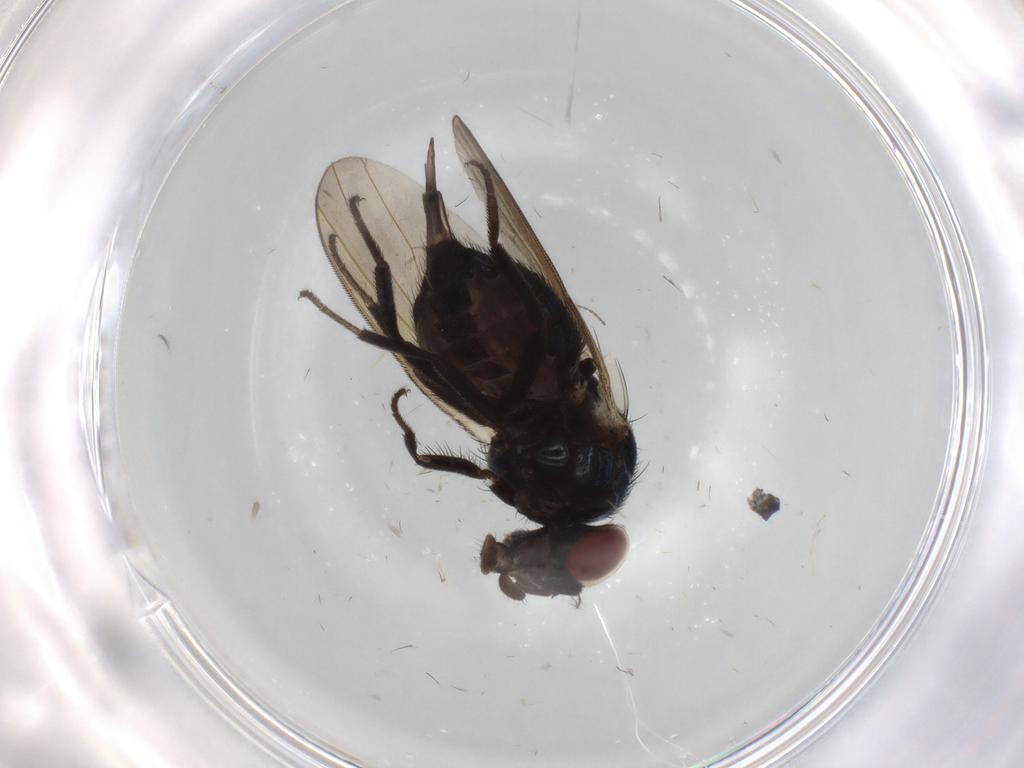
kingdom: Animalia
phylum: Arthropoda
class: Insecta
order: Diptera
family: Lonchaeidae
